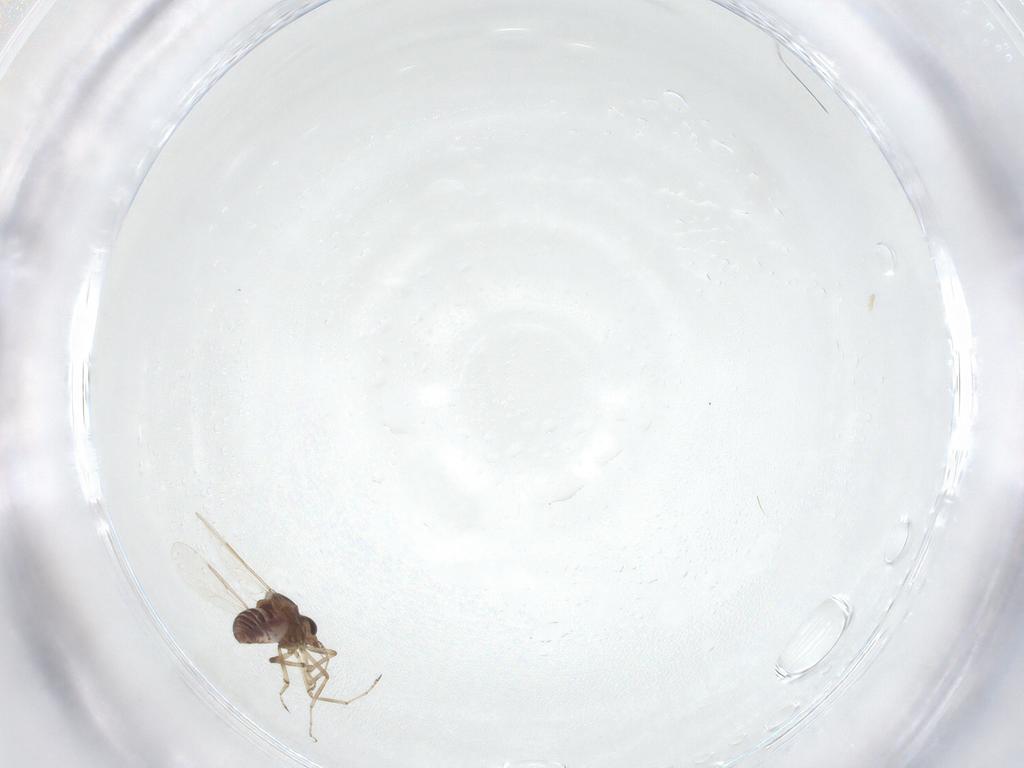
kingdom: Animalia
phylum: Arthropoda
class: Insecta
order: Diptera
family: Ceratopogonidae
